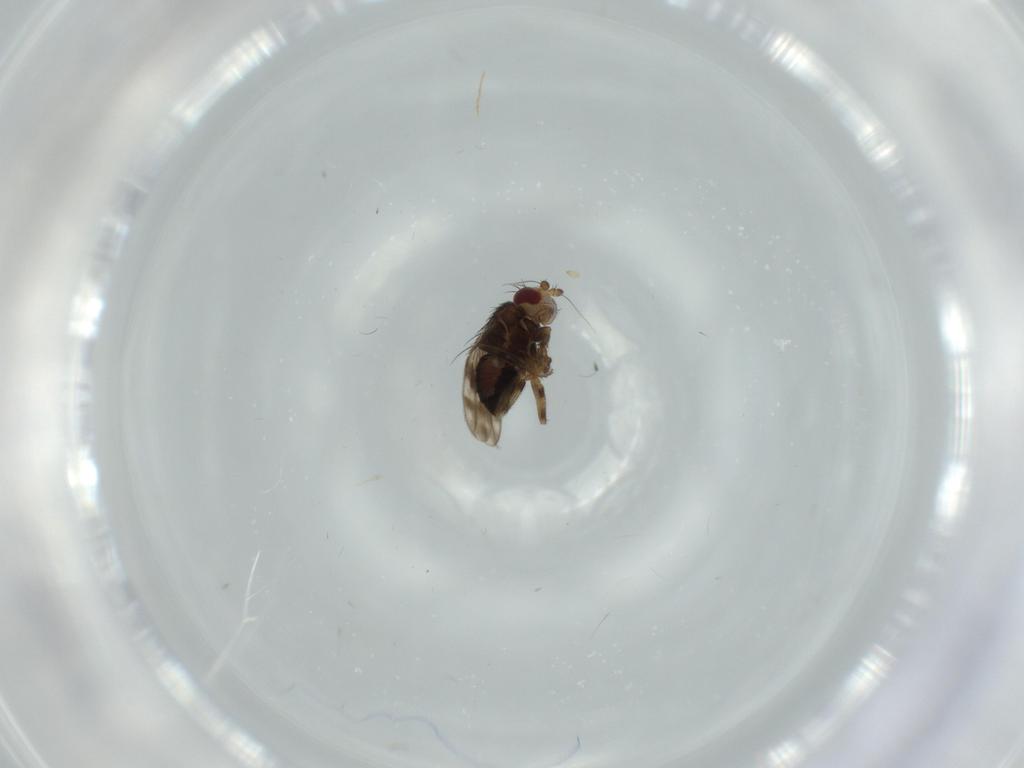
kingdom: Animalia
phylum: Arthropoda
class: Insecta
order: Diptera
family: Sphaeroceridae
